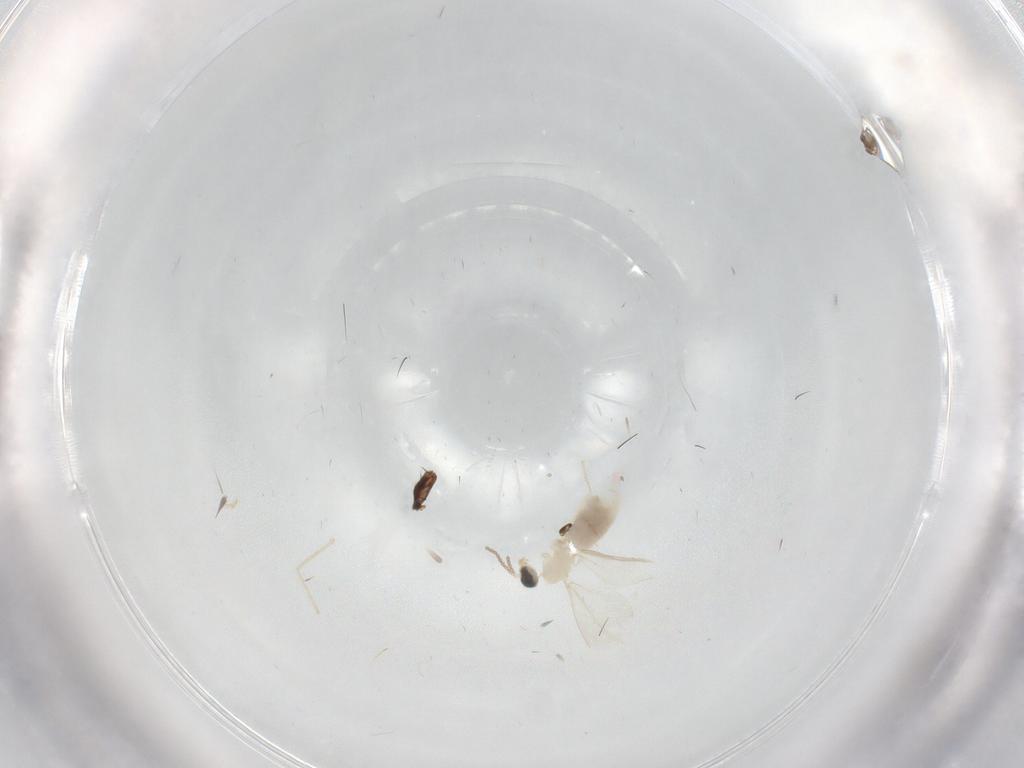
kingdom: Animalia
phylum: Arthropoda
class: Insecta
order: Diptera
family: Cecidomyiidae
